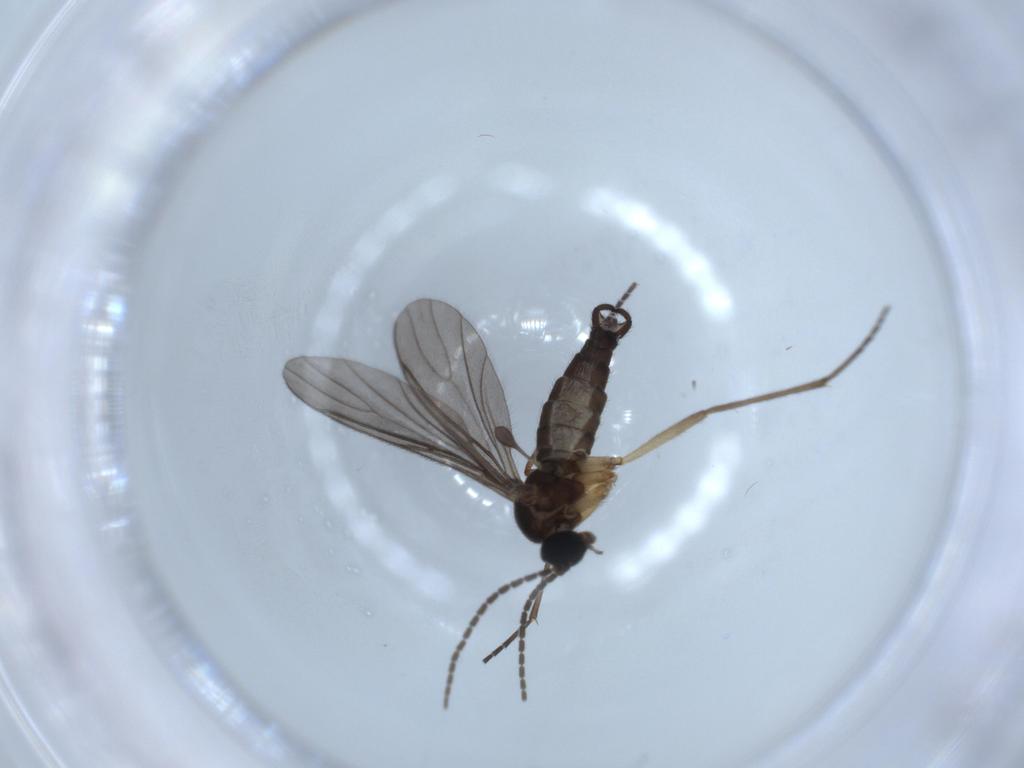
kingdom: Animalia
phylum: Arthropoda
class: Insecta
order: Diptera
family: Sciaridae
